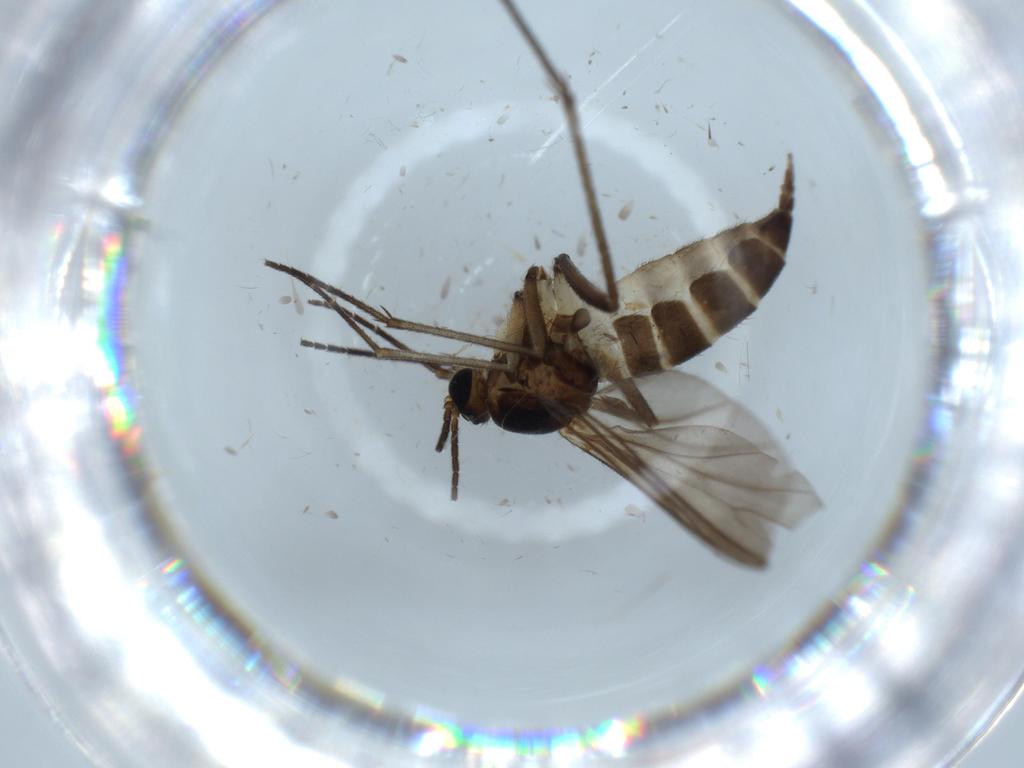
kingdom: Animalia
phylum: Arthropoda
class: Insecta
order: Diptera
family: Sciaridae
